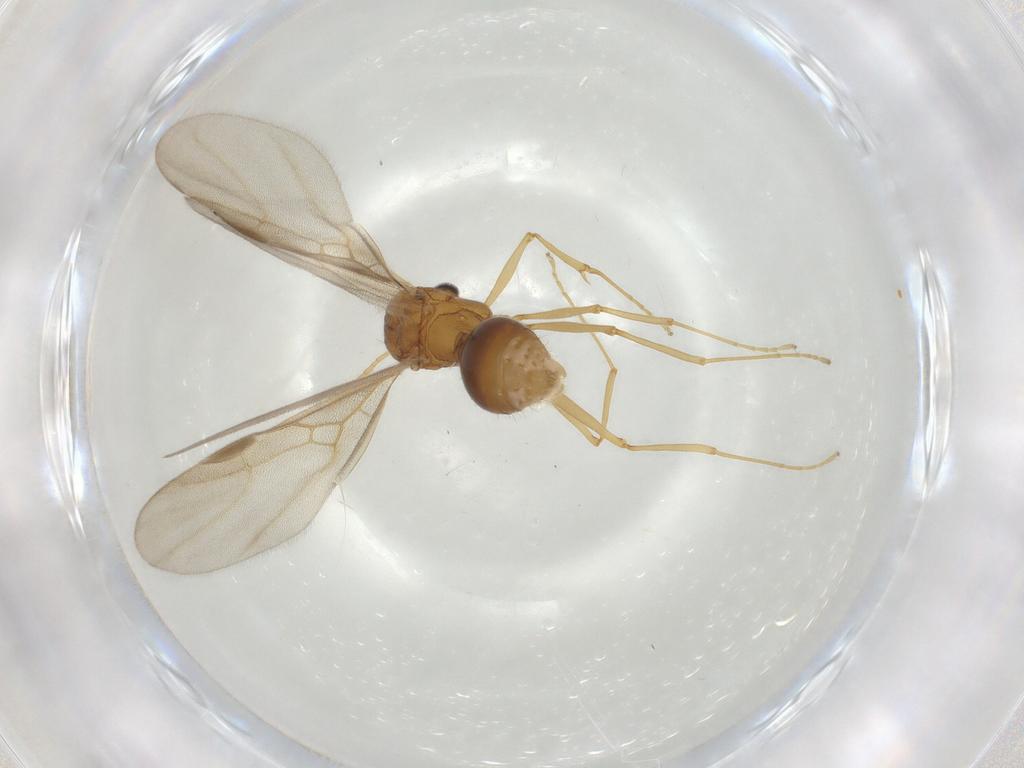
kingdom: Animalia
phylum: Arthropoda
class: Insecta
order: Hymenoptera
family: Formicidae
